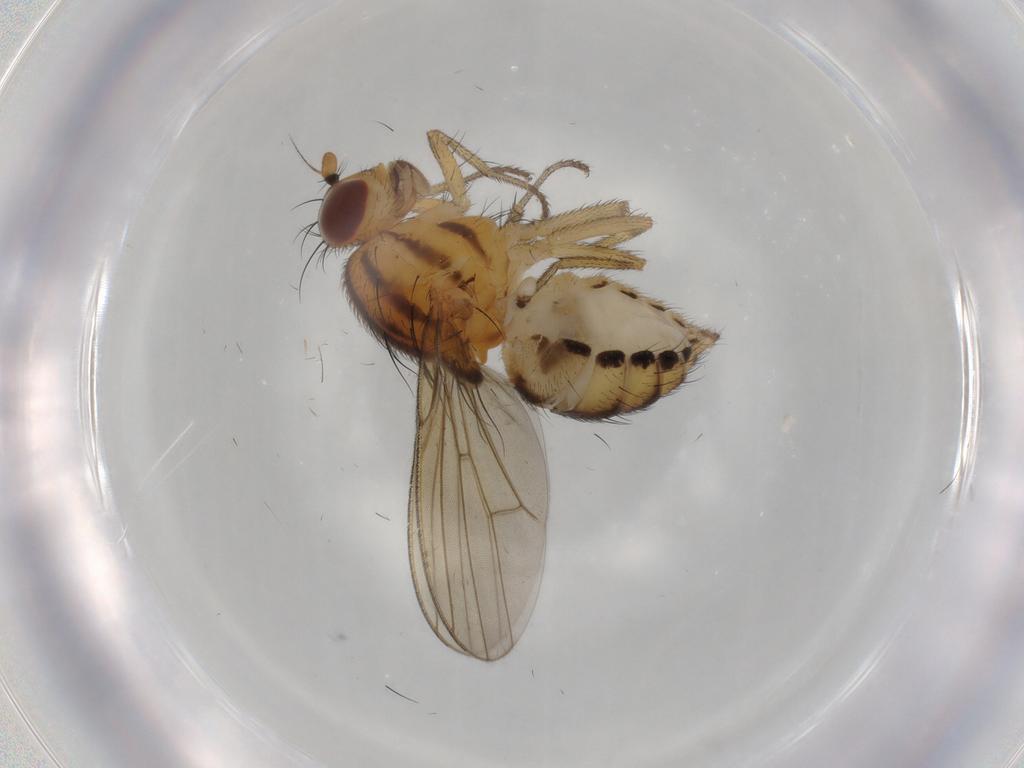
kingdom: Animalia
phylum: Arthropoda
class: Insecta
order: Diptera
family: Lauxaniidae
